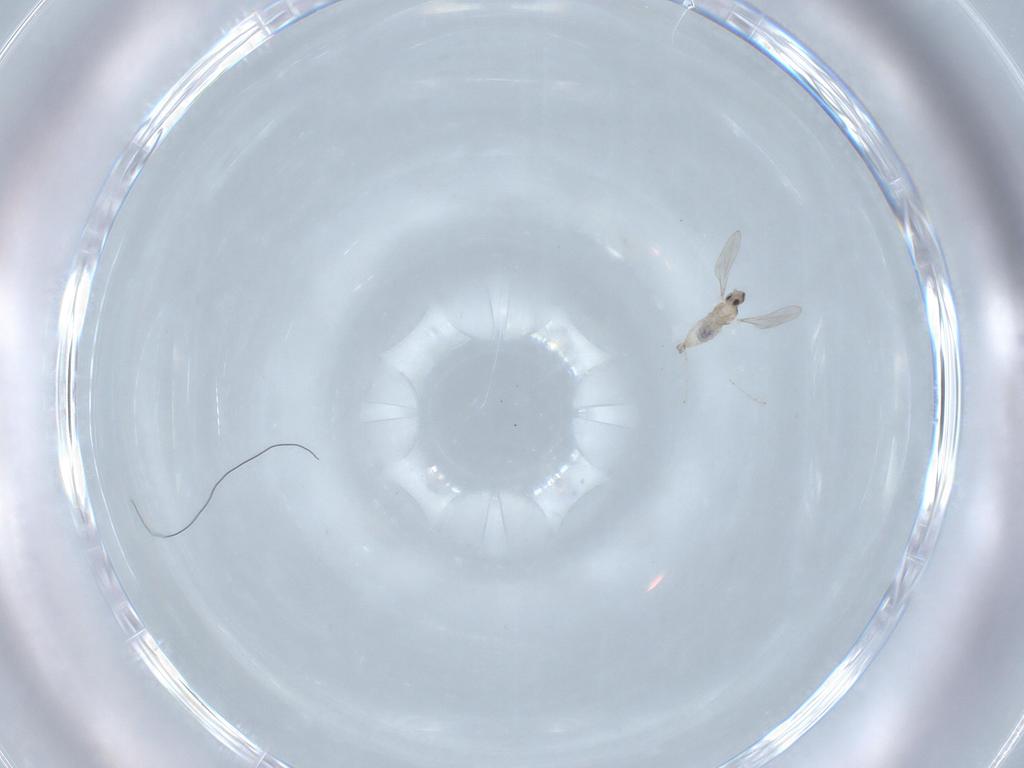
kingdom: Animalia
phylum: Arthropoda
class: Insecta
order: Diptera
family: Cecidomyiidae
